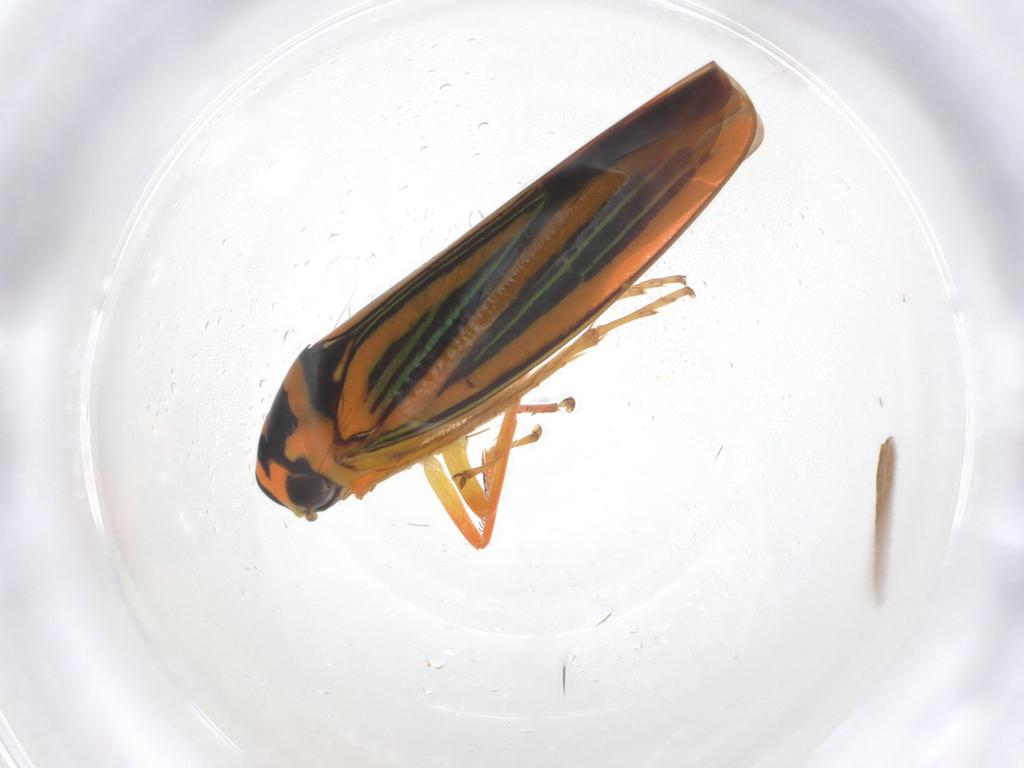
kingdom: Animalia
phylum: Arthropoda
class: Insecta
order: Hemiptera
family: Cicadellidae
